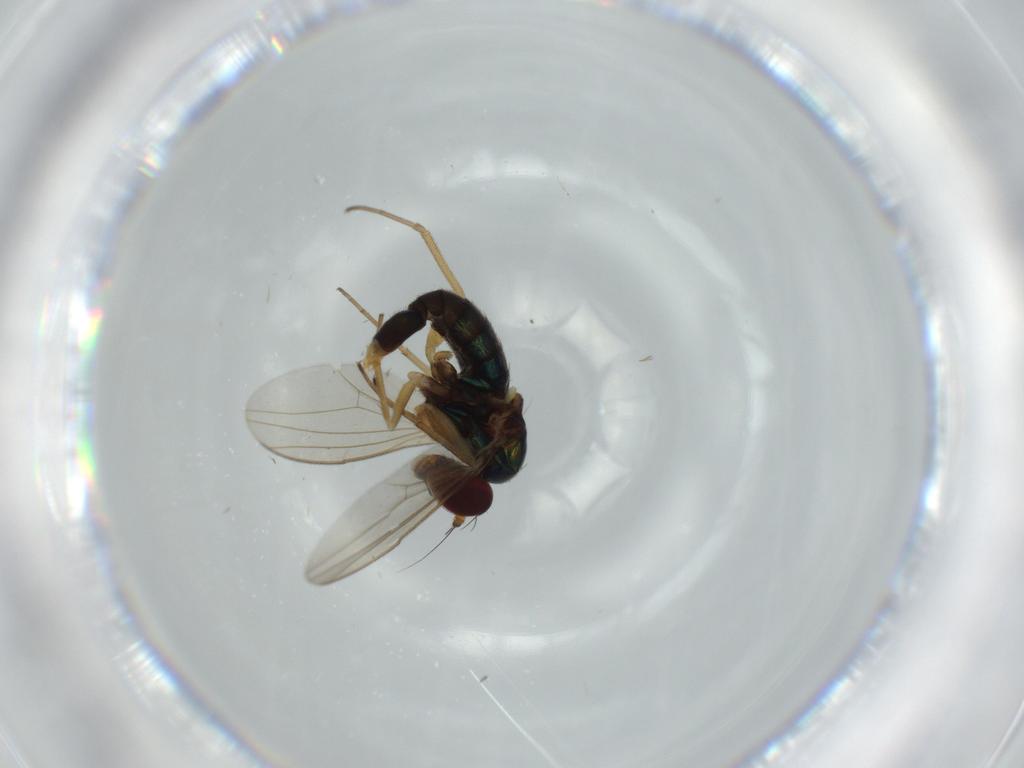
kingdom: Animalia
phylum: Arthropoda
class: Insecta
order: Diptera
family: Dolichopodidae
